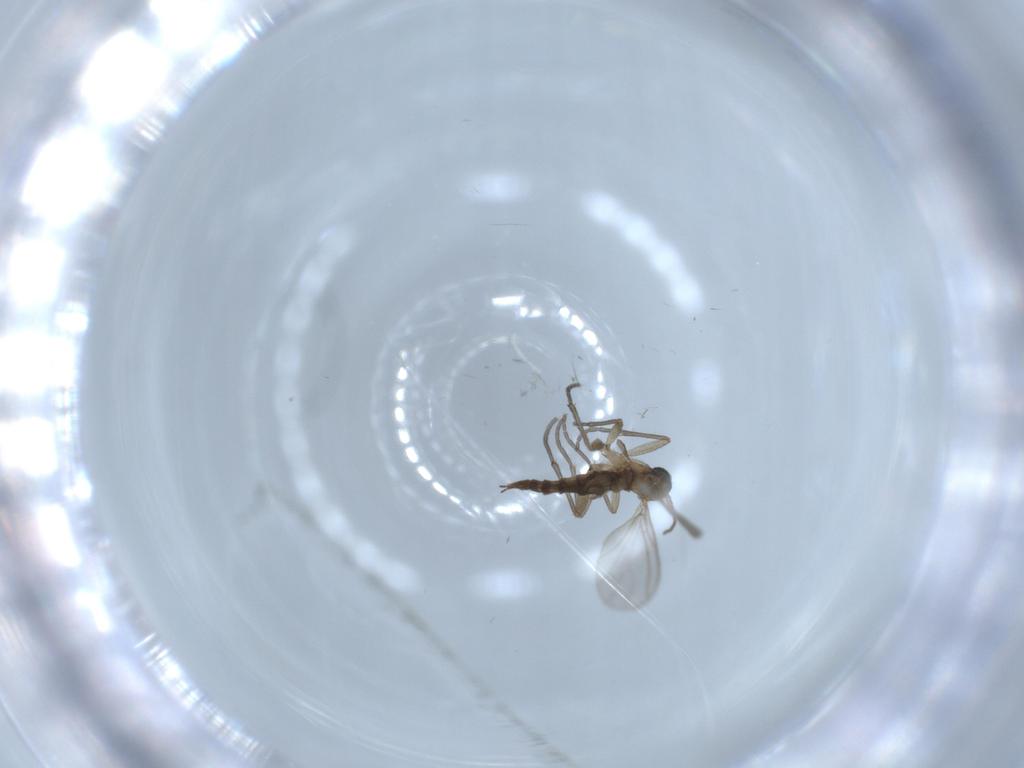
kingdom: Animalia
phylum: Arthropoda
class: Insecta
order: Diptera
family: Sciaridae
